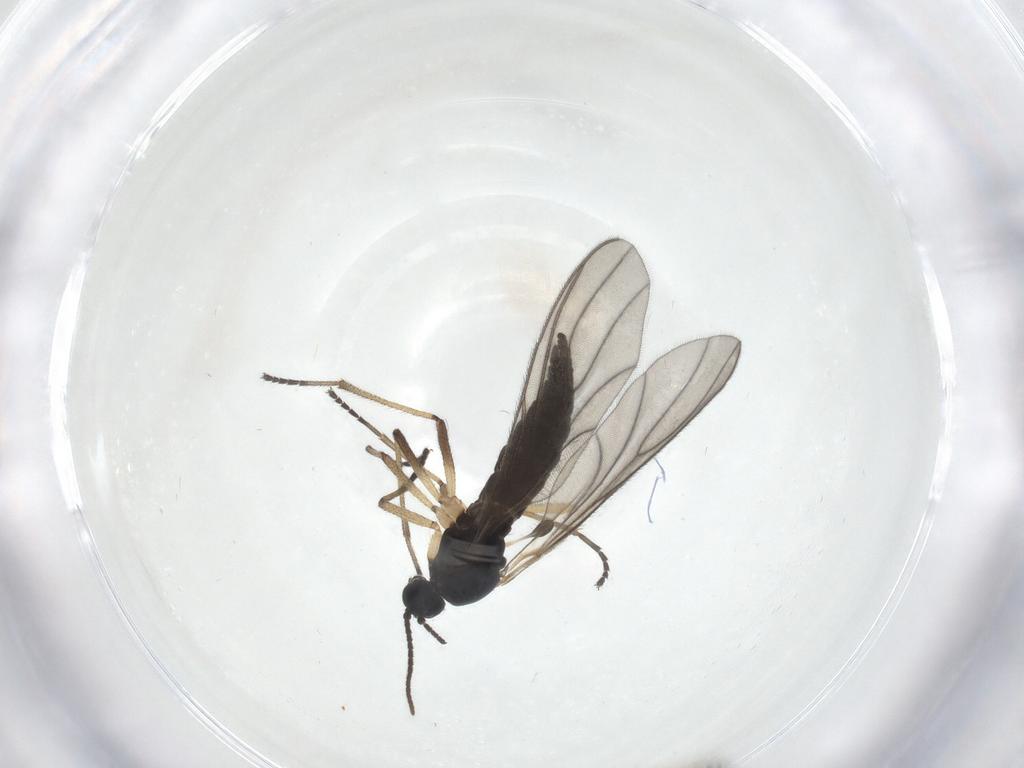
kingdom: Animalia
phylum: Arthropoda
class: Insecta
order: Diptera
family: Sciaridae
